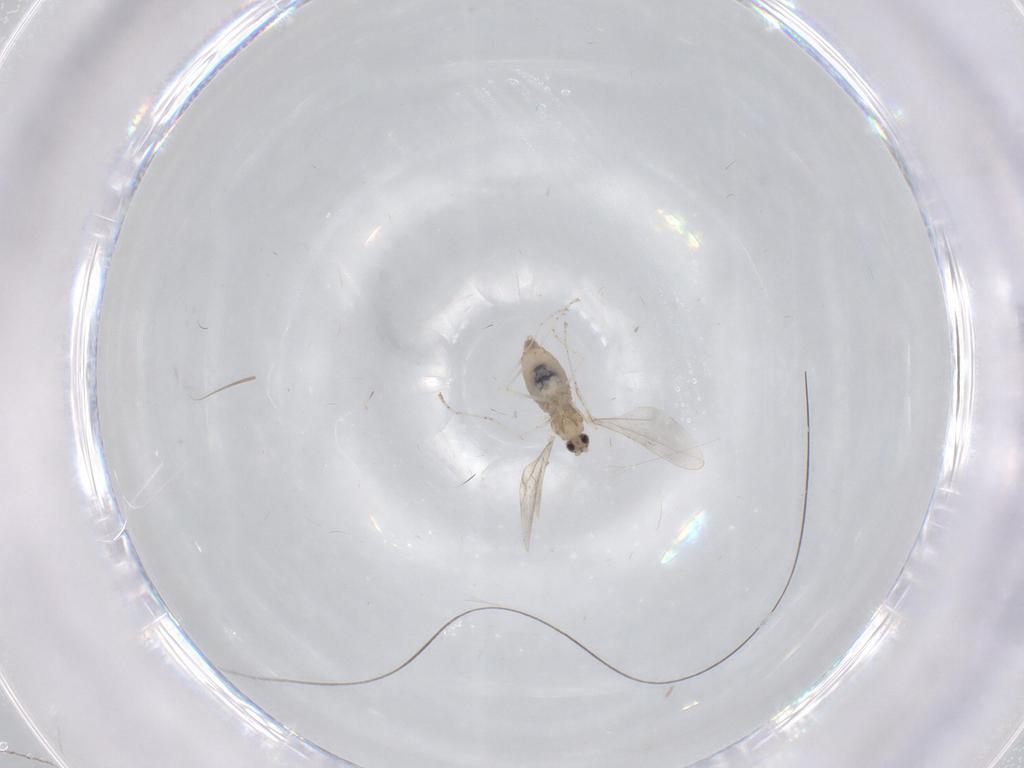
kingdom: Animalia
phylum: Arthropoda
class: Insecta
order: Diptera
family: Cecidomyiidae
